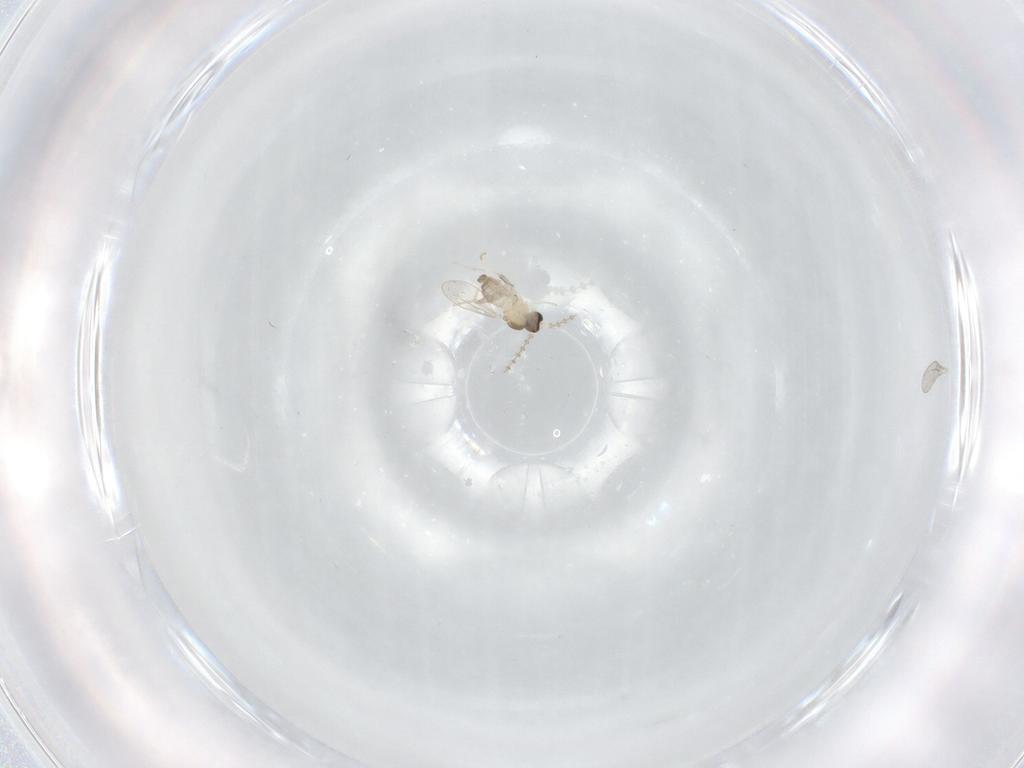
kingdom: Animalia
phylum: Arthropoda
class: Insecta
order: Diptera
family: Cecidomyiidae
